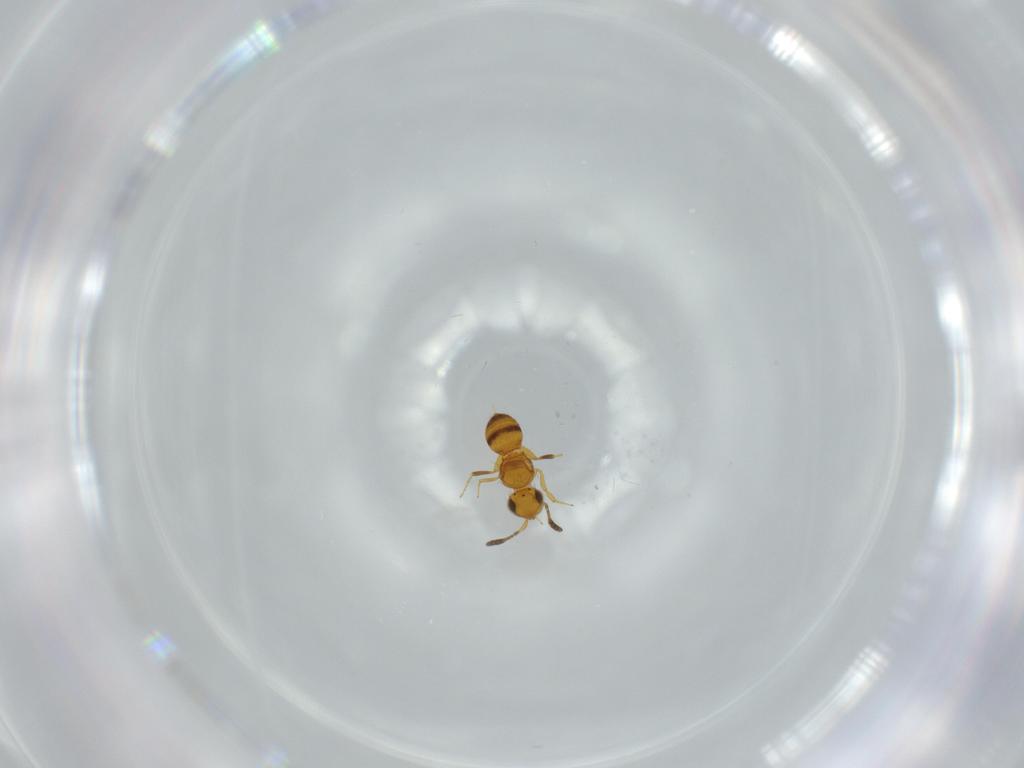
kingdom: Animalia
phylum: Arthropoda
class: Insecta
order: Hymenoptera
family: Scelionidae
